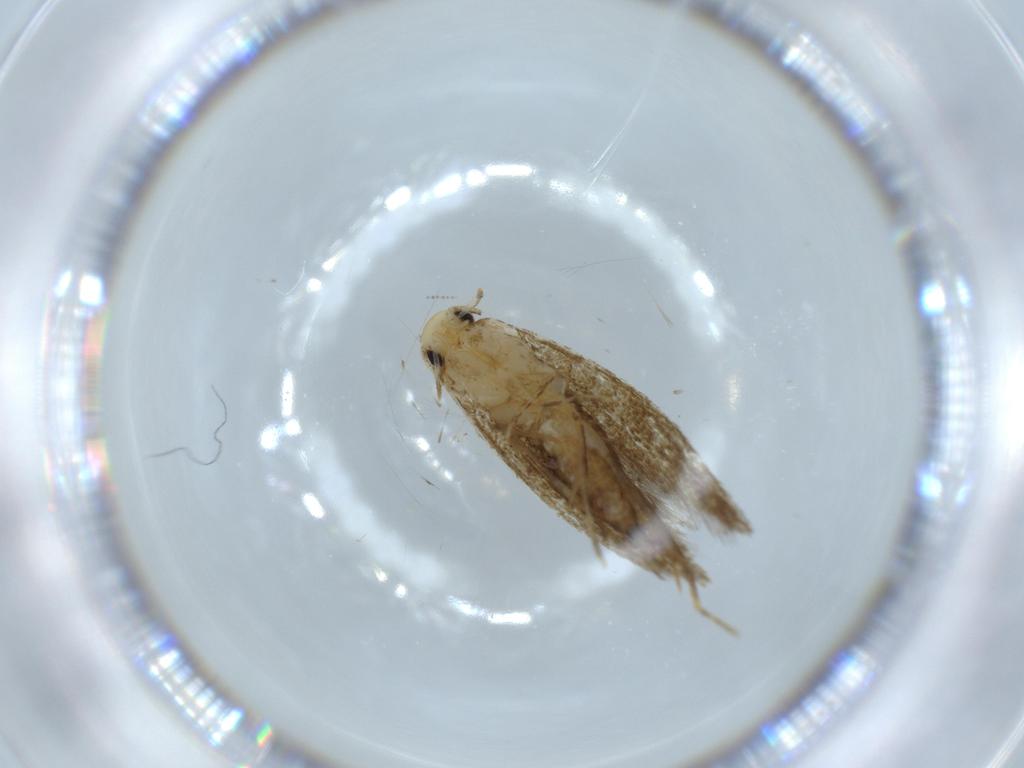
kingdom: Animalia
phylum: Arthropoda
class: Insecta
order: Lepidoptera
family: Tineidae
